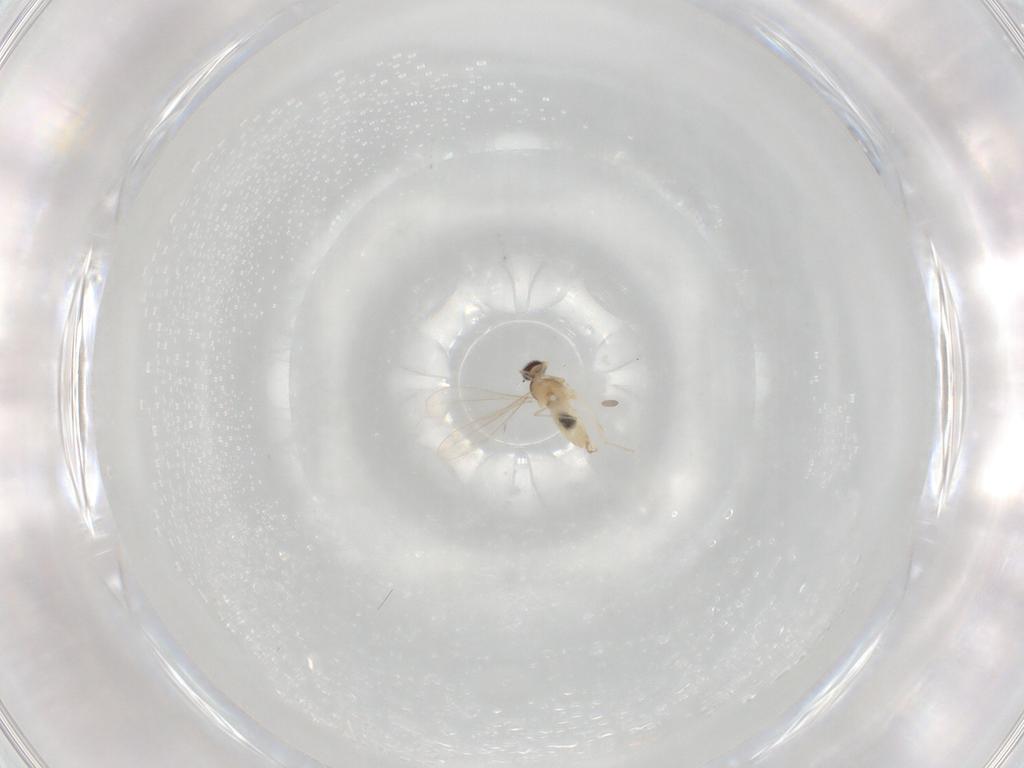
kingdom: Animalia
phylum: Arthropoda
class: Insecta
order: Diptera
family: Cecidomyiidae
